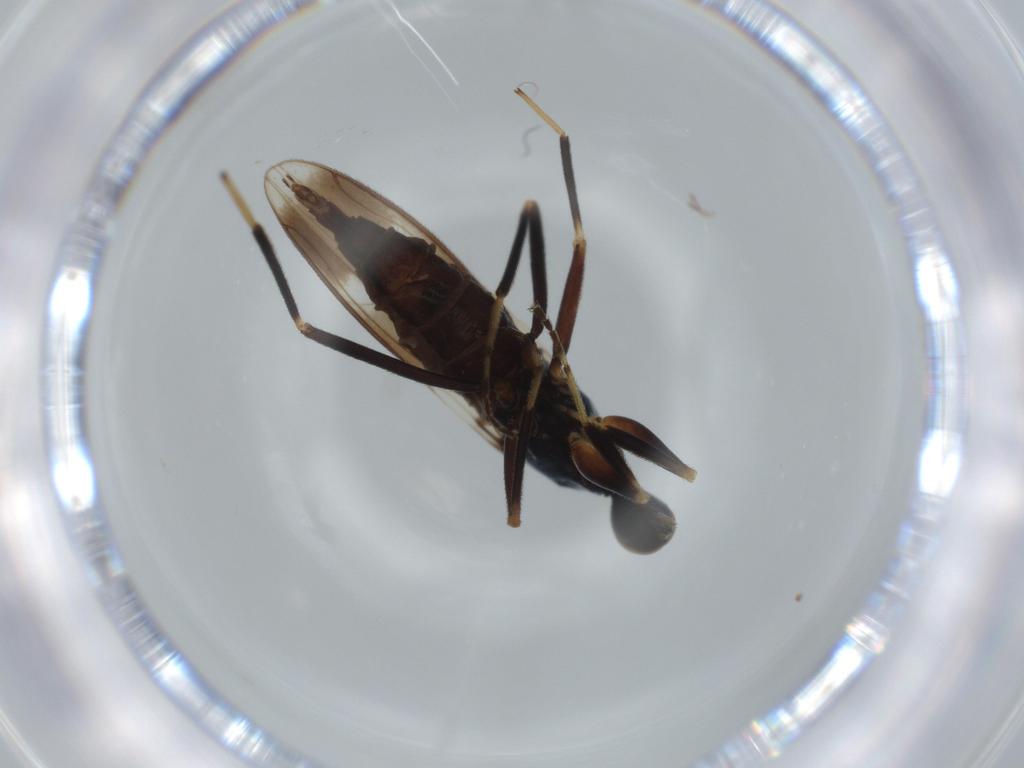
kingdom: Animalia
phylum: Arthropoda
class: Insecta
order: Diptera
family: Hybotidae
